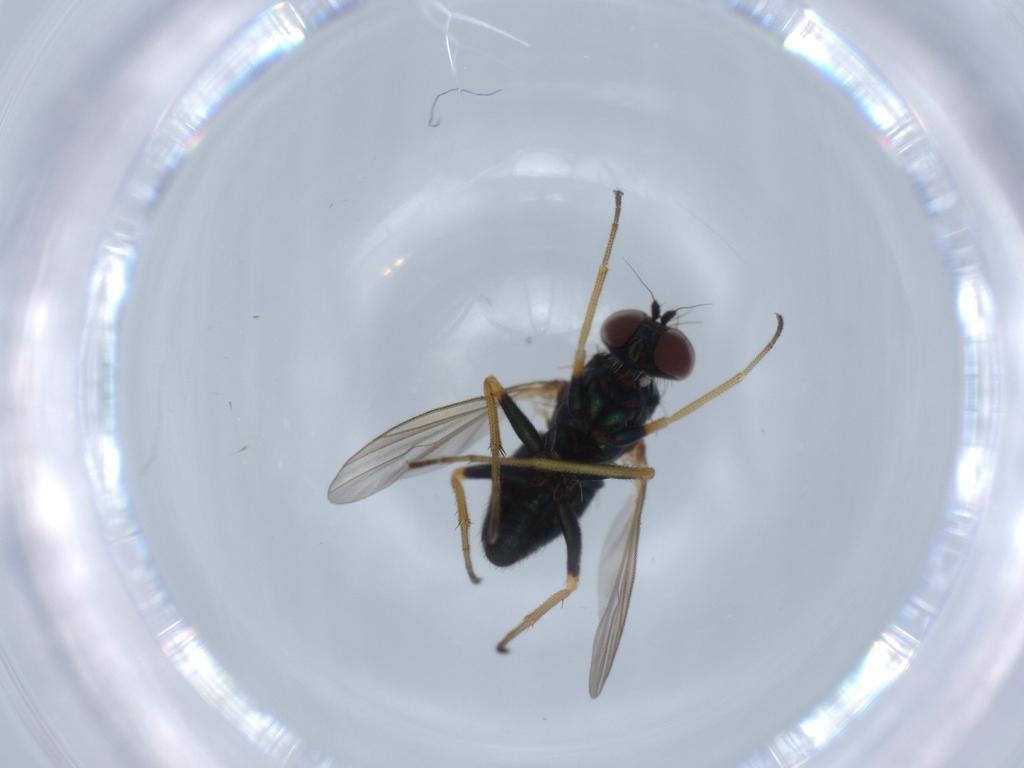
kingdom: Animalia
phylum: Arthropoda
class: Insecta
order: Diptera
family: Dolichopodidae
